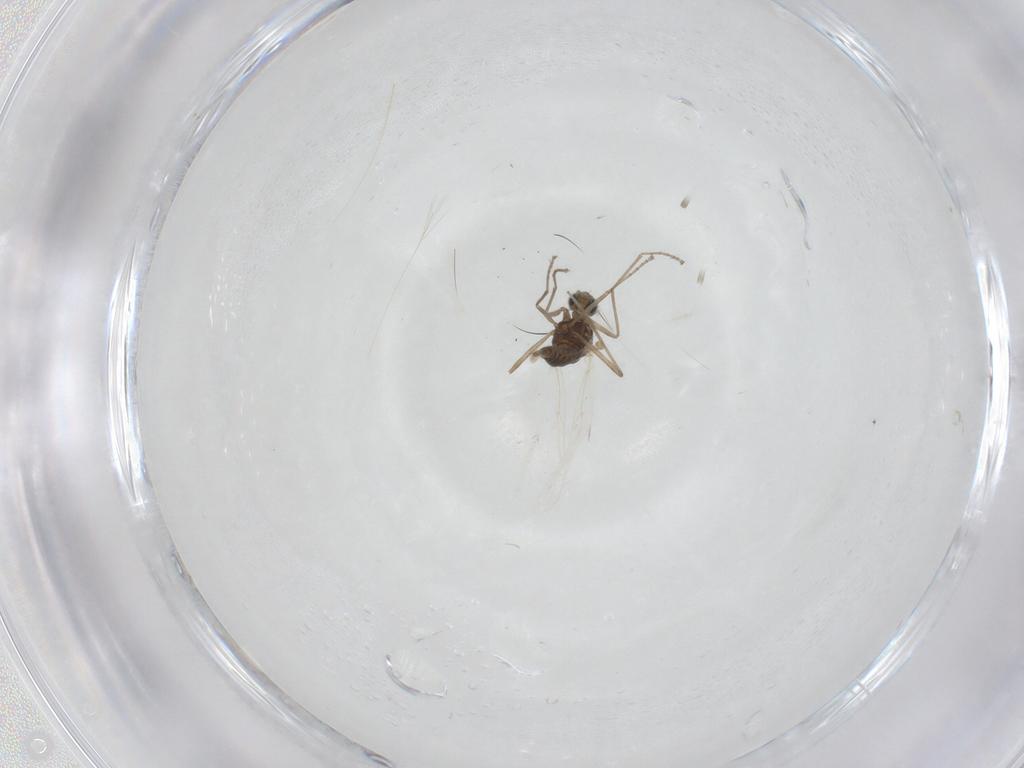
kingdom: Animalia
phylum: Arthropoda
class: Insecta
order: Diptera
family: Cecidomyiidae
